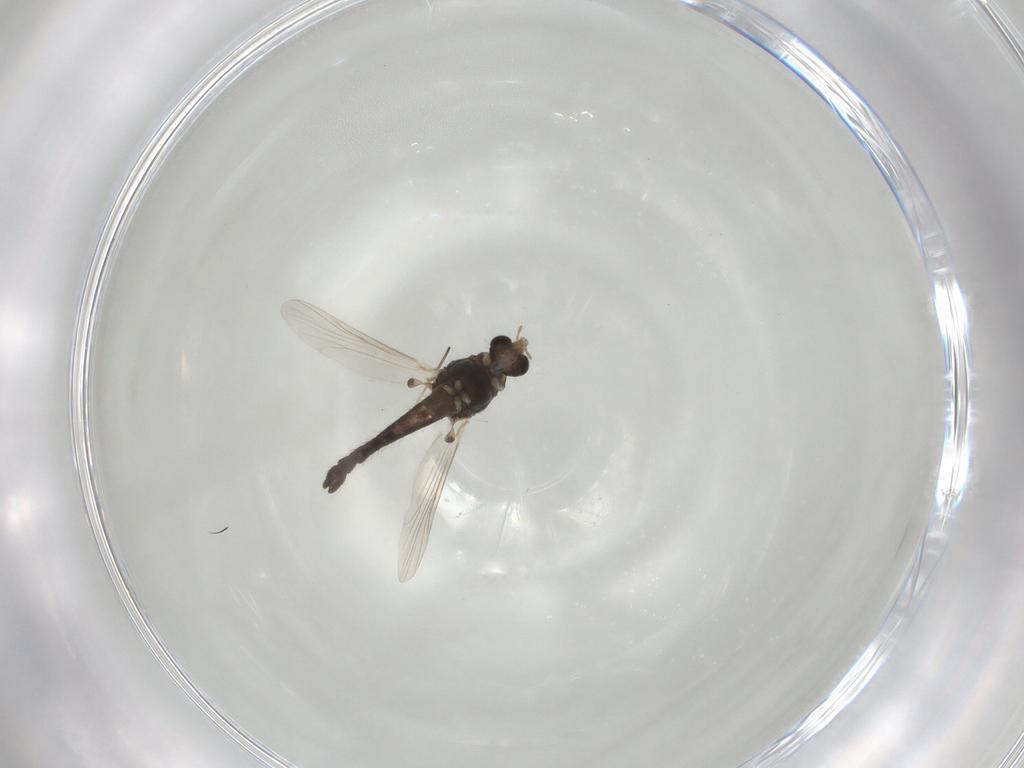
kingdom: Animalia
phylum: Arthropoda
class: Insecta
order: Diptera
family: Chironomidae
